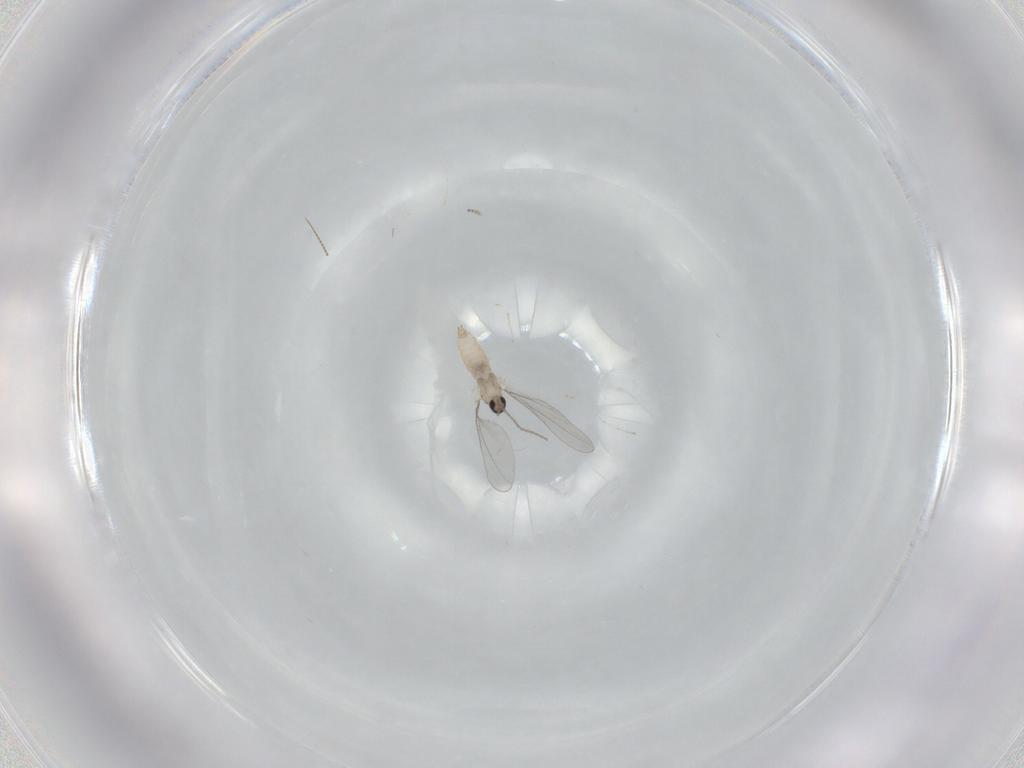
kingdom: Animalia
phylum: Arthropoda
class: Insecta
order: Diptera
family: Cecidomyiidae
